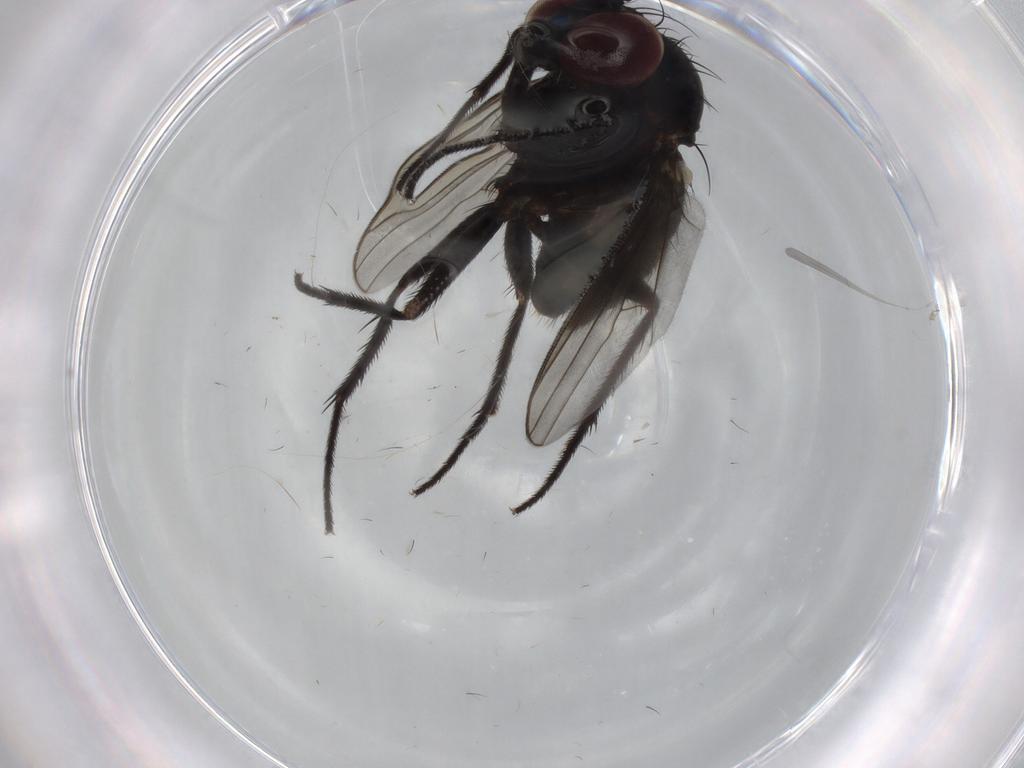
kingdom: Animalia
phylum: Arthropoda
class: Insecta
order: Diptera
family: Dolichopodidae
